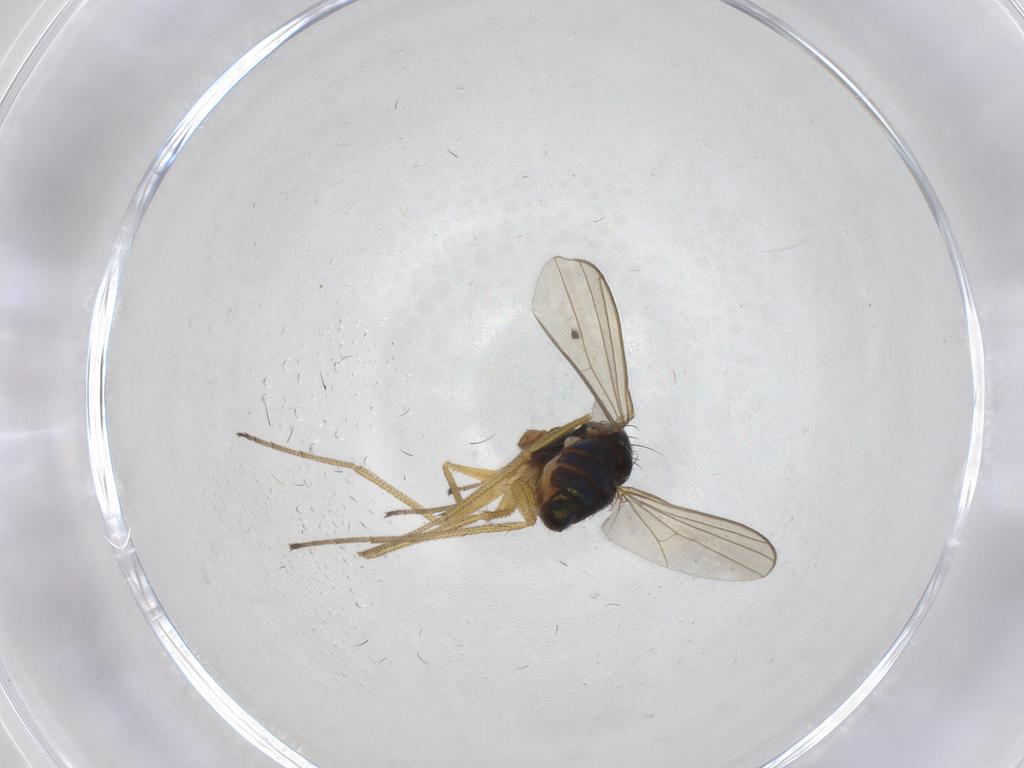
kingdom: Animalia
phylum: Arthropoda
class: Insecta
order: Diptera
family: Dolichopodidae
